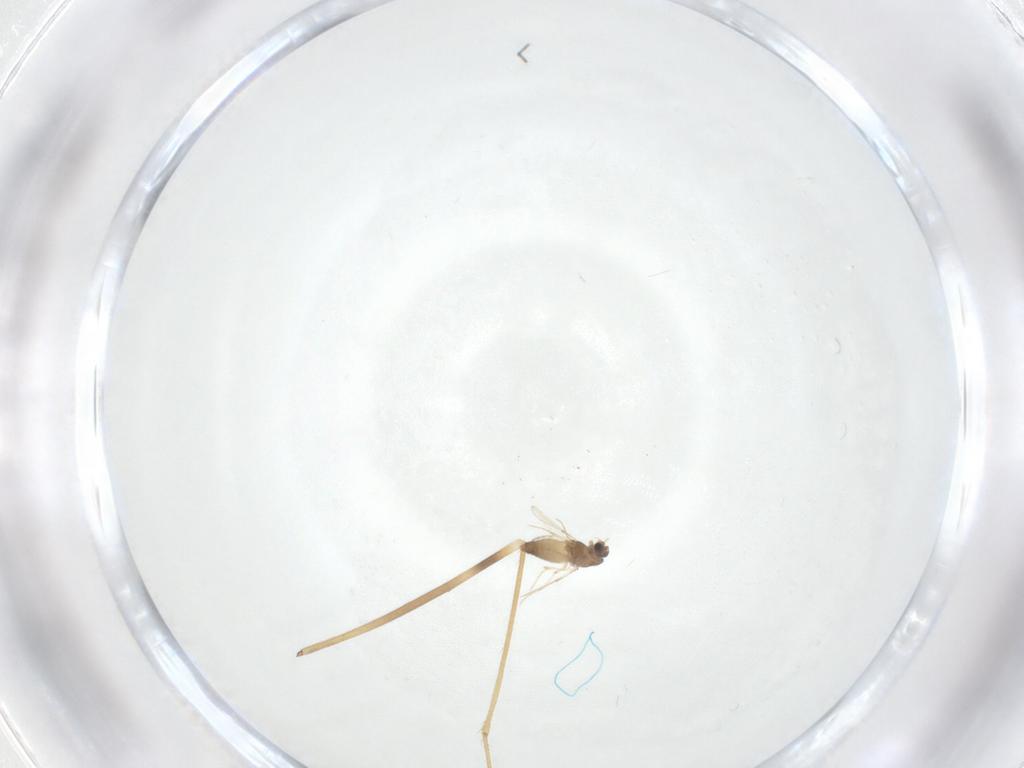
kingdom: Animalia
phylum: Arthropoda
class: Insecta
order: Diptera
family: Chironomidae
